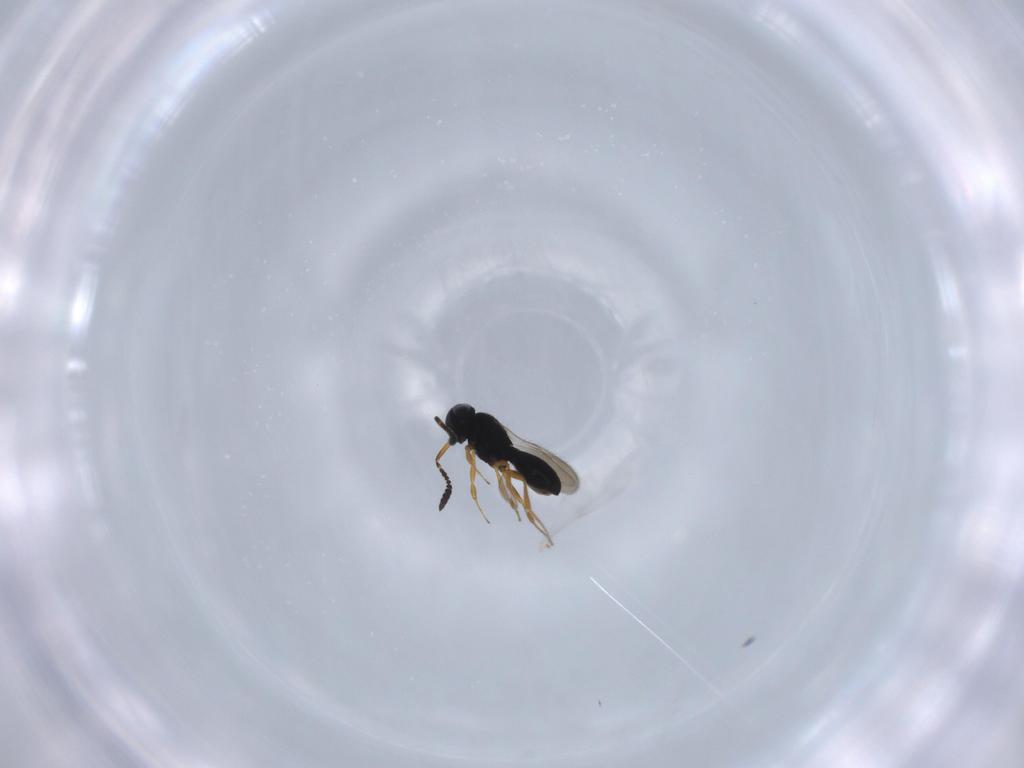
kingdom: Animalia
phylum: Arthropoda
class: Insecta
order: Hymenoptera
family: Scelionidae
